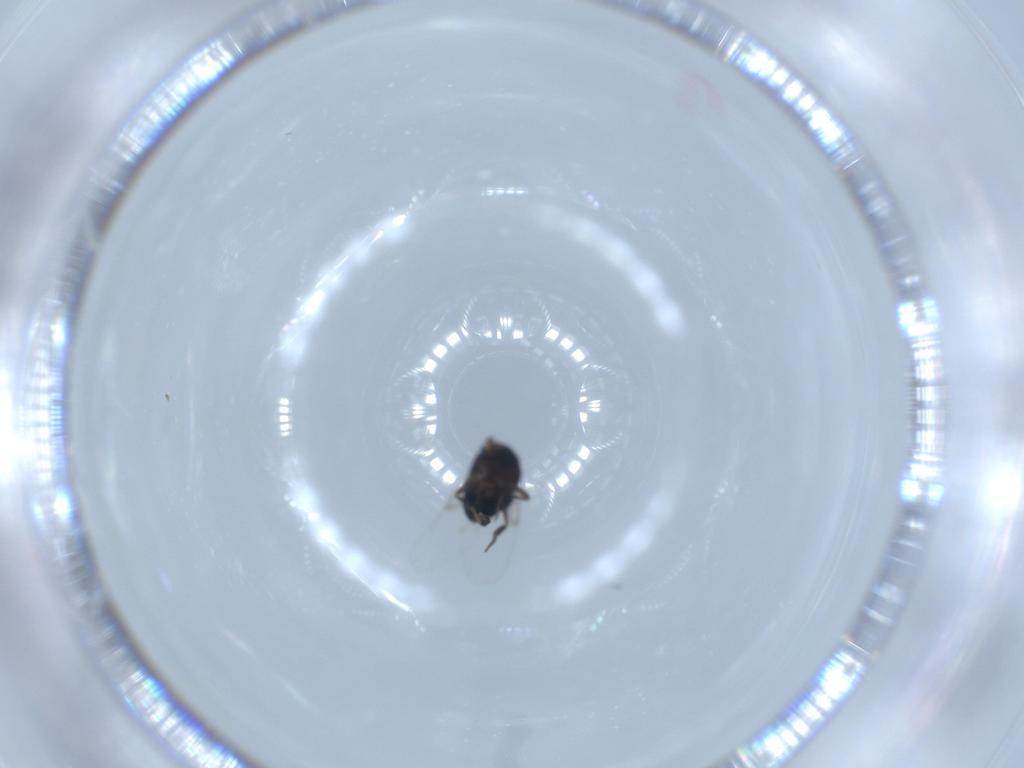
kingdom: Animalia
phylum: Arthropoda
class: Insecta
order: Diptera
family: Phoridae
